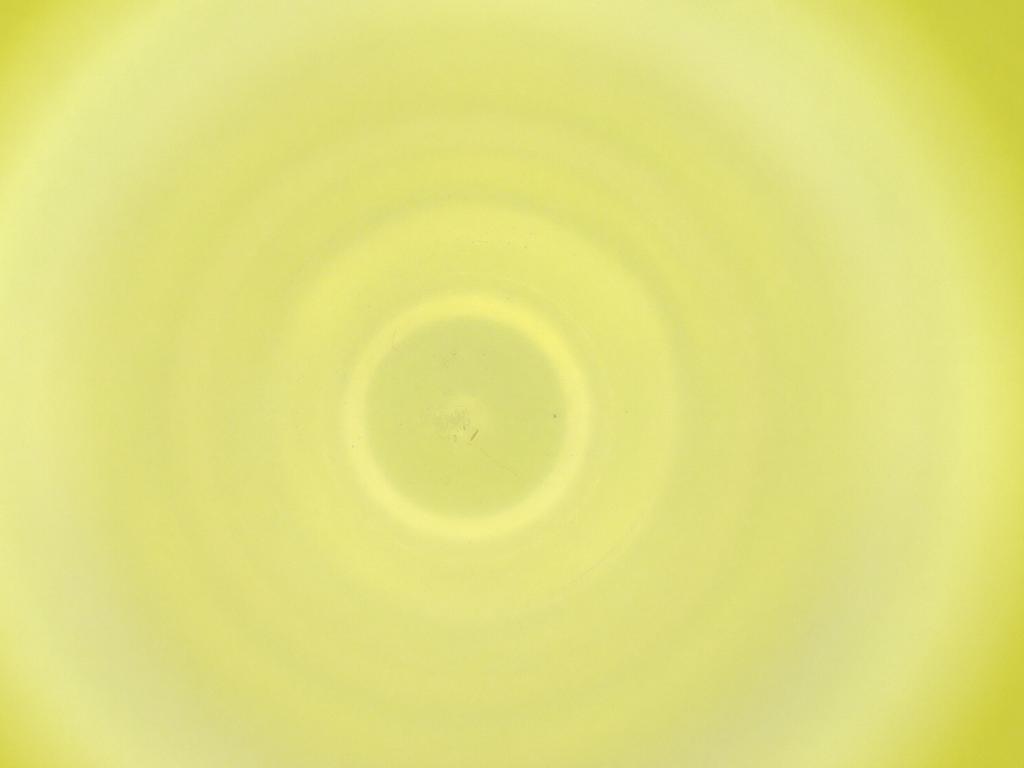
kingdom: Animalia
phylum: Arthropoda
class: Insecta
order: Diptera
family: Cecidomyiidae
